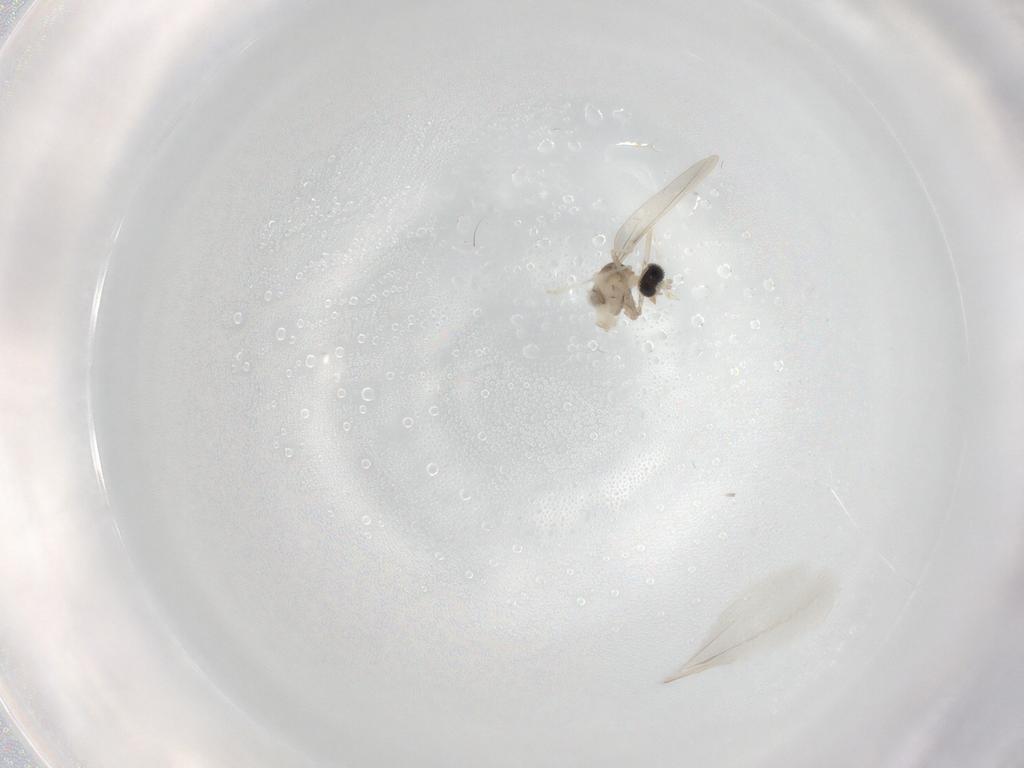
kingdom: Animalia
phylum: Arthropoda
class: Insecta
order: Diptera
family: Cecidomyiidae
